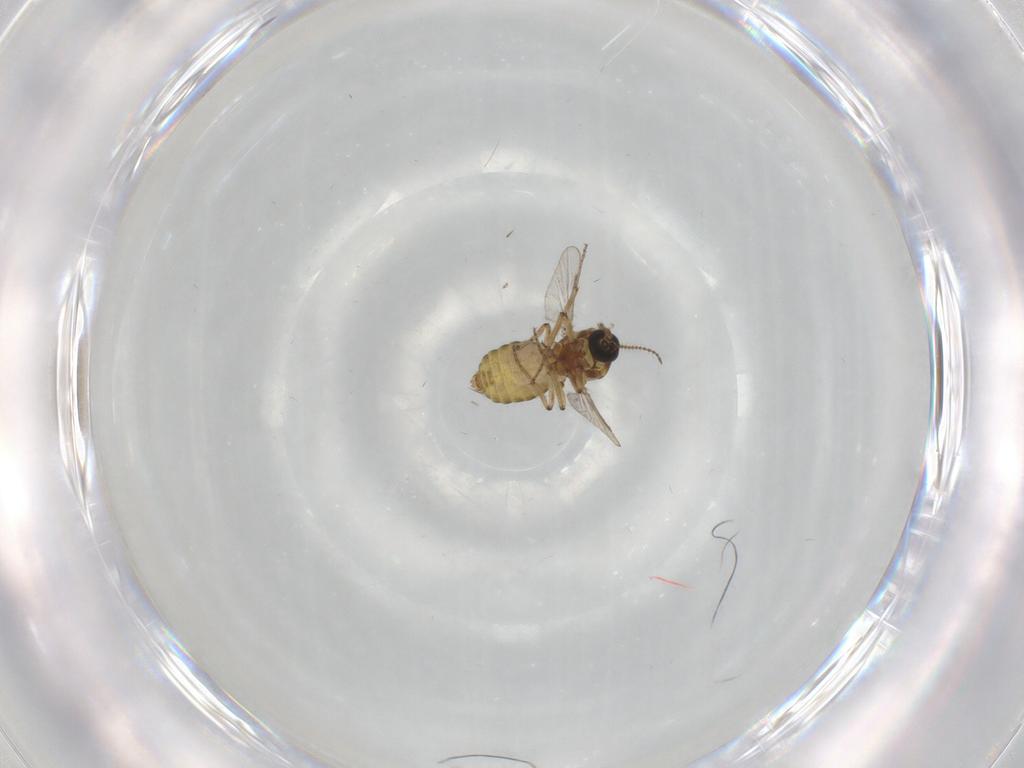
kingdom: Animalia
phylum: Arthropoda
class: Insecta
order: Diptera
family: Ceratopogonidae
